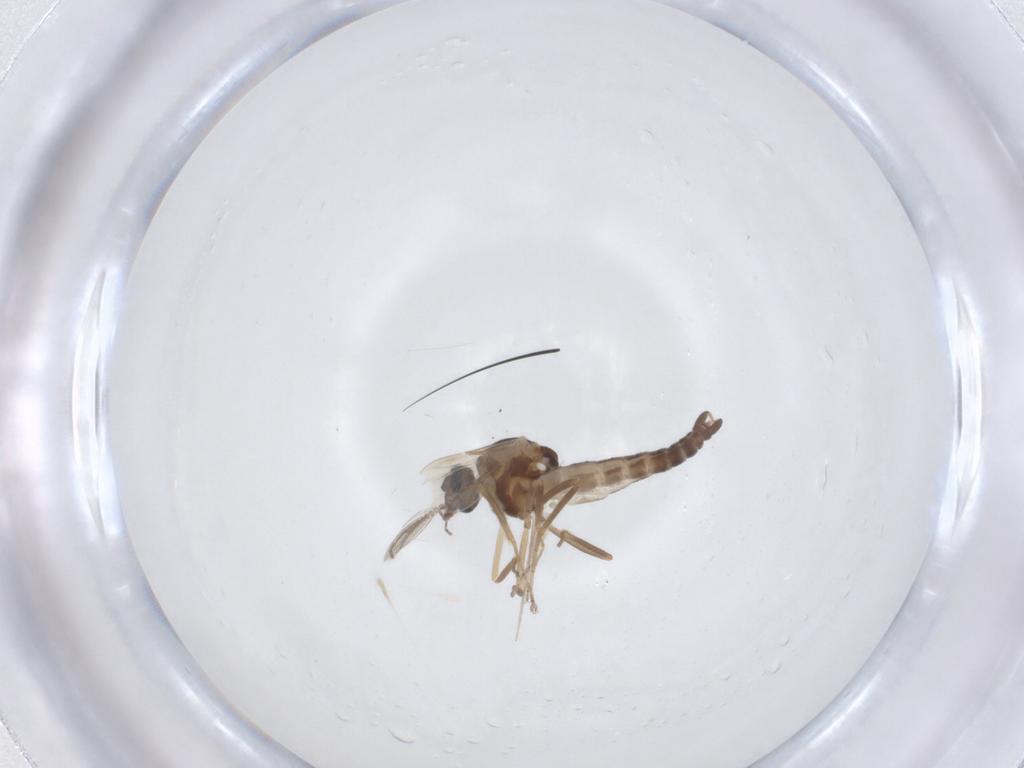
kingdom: Animalia
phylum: Arthropoda
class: Insecta
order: Diptera
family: Ceratopogonidae
